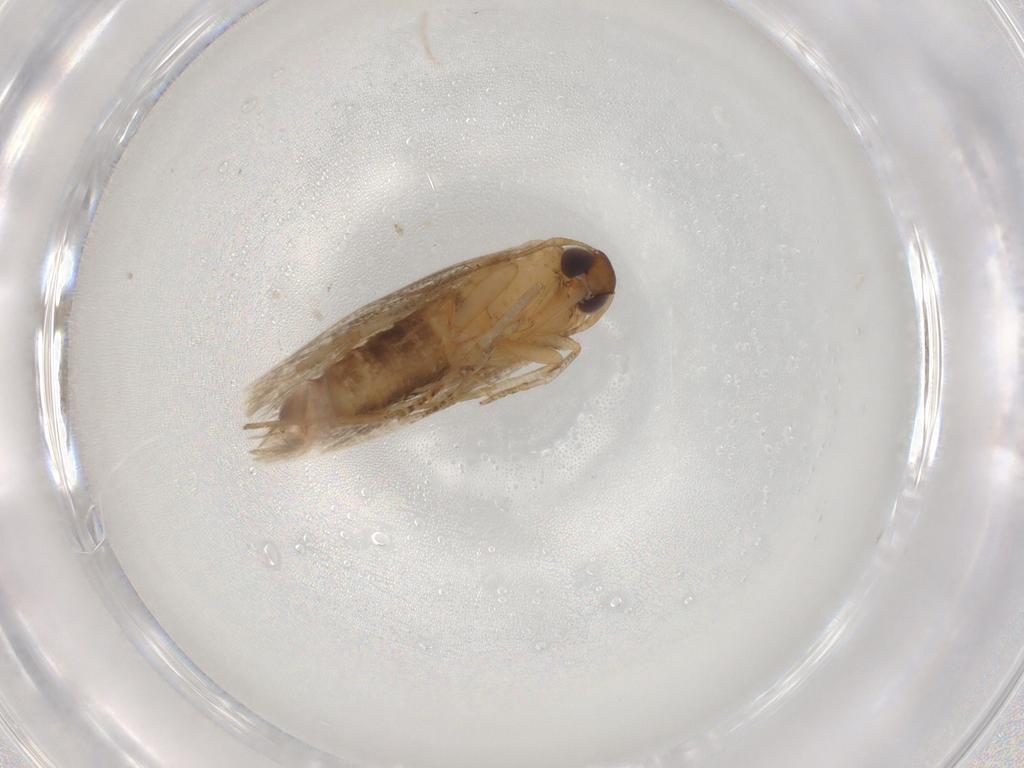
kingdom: Animalia
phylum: Arthropoda
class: Insecta
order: Lepidoptera
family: Cosmopterigidae
